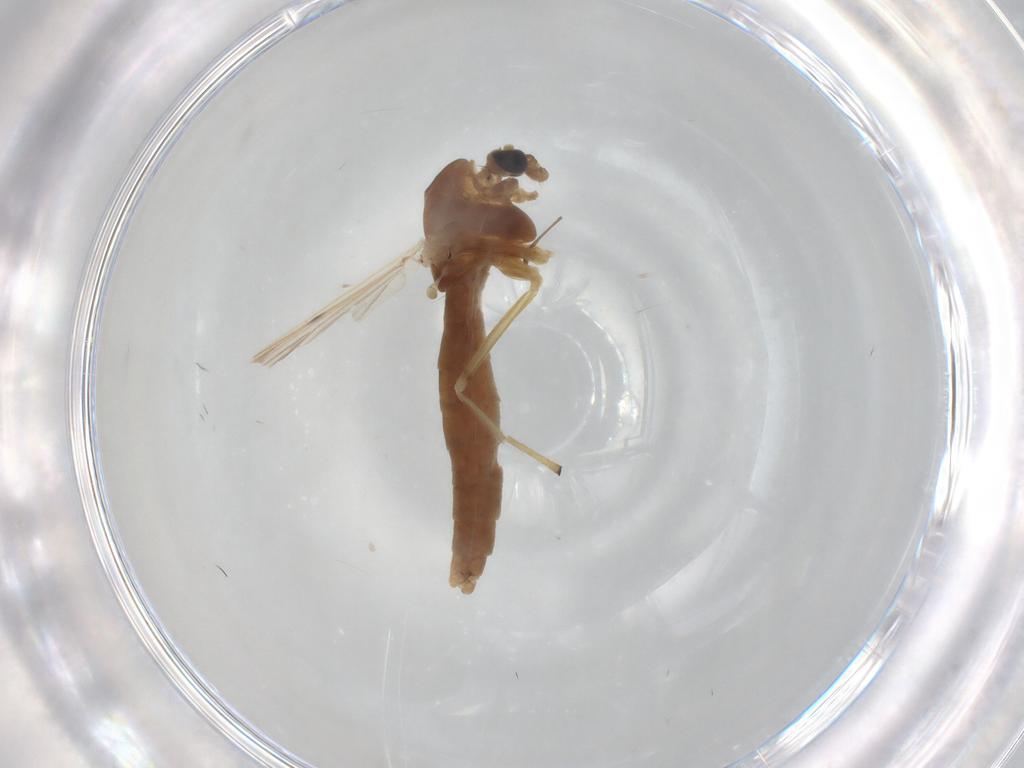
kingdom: Animalia
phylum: Arthropoda
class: Insecta
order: Diptera
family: Phoridae
